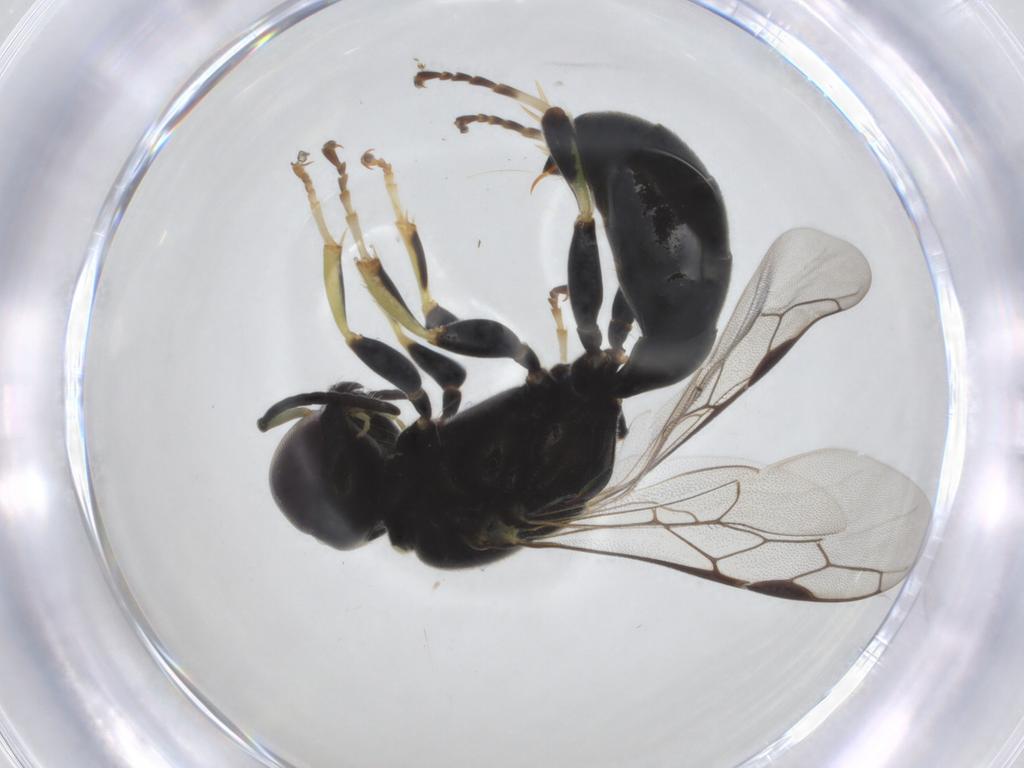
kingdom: Animalia
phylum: Arthropoda
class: Insecta
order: Hymenoptera
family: Crabronidae
